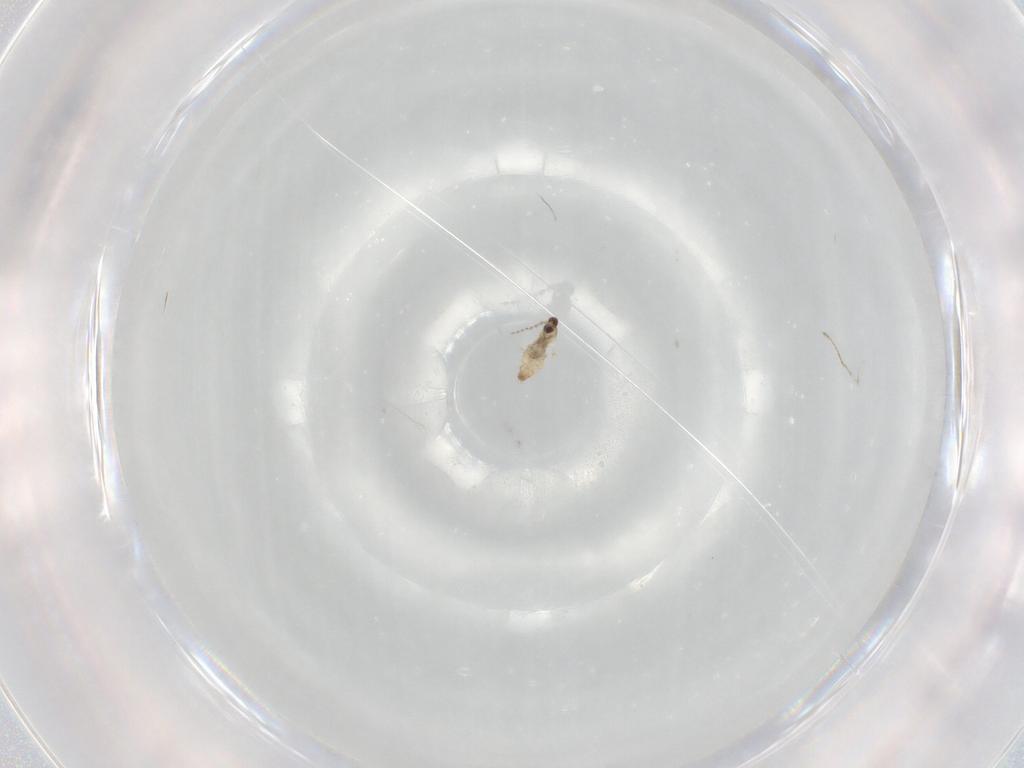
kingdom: Animalia
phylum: Arthropoda
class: Insecta
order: Diptera
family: Cecidomyiidae
